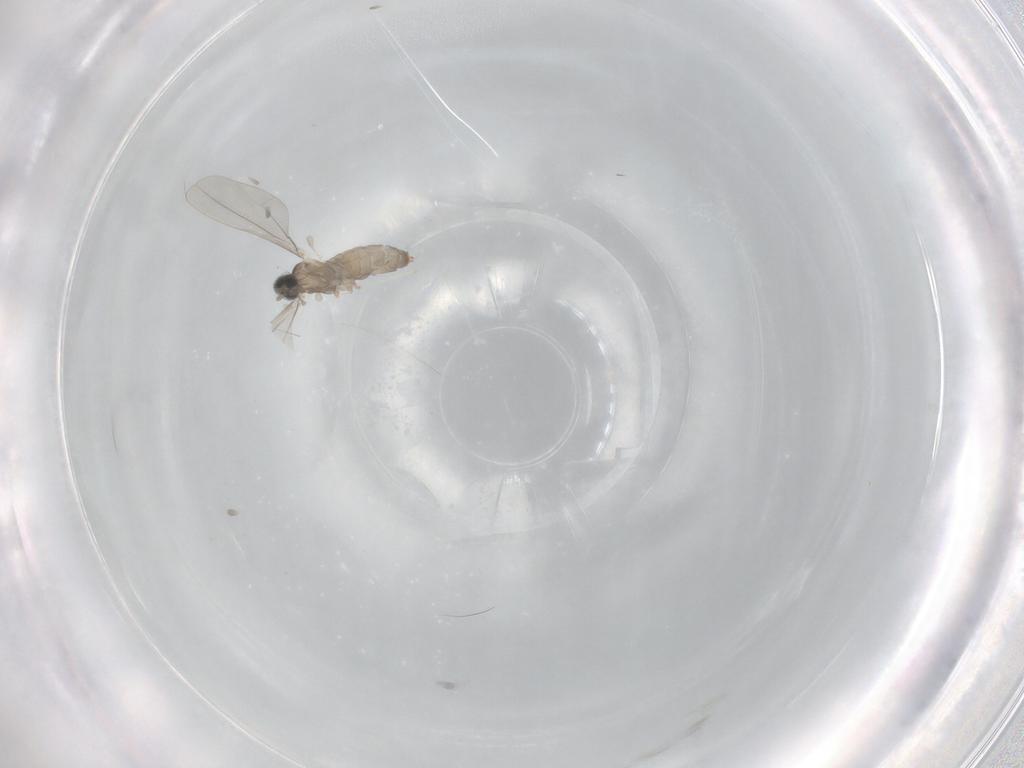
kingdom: Animalia
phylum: Arthropoda
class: Insecta
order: Diptera
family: Cecidomyiidae
